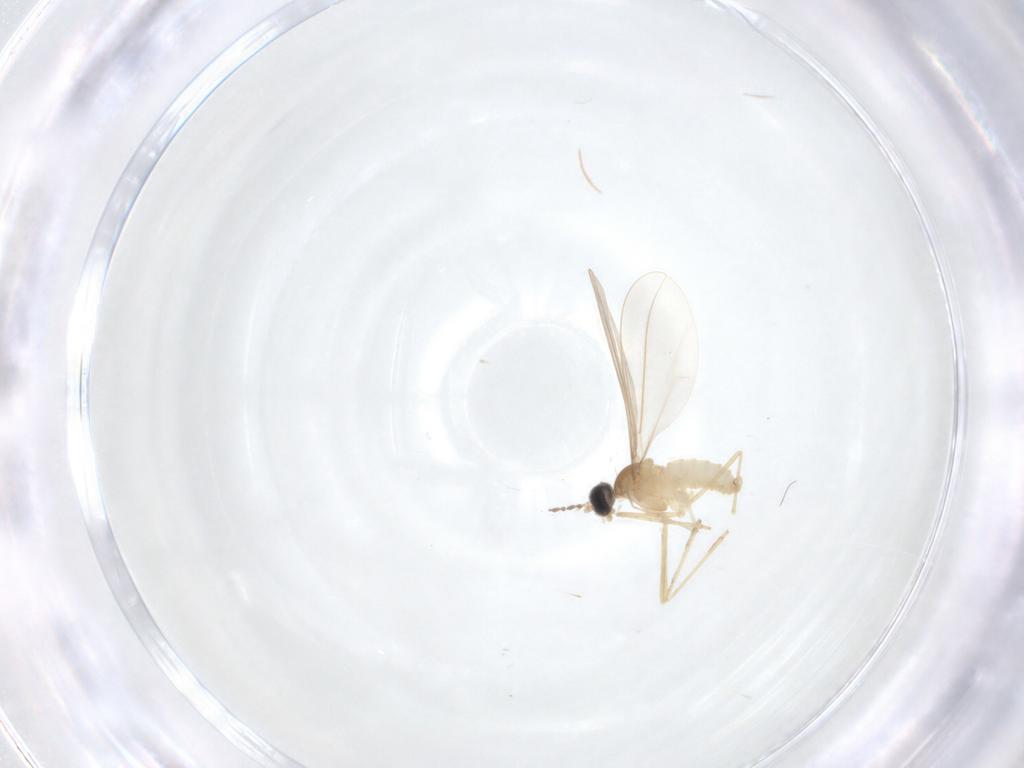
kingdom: Animalia
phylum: Arthropoda
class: Insecta
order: Diptera
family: Cecidomyiidae
